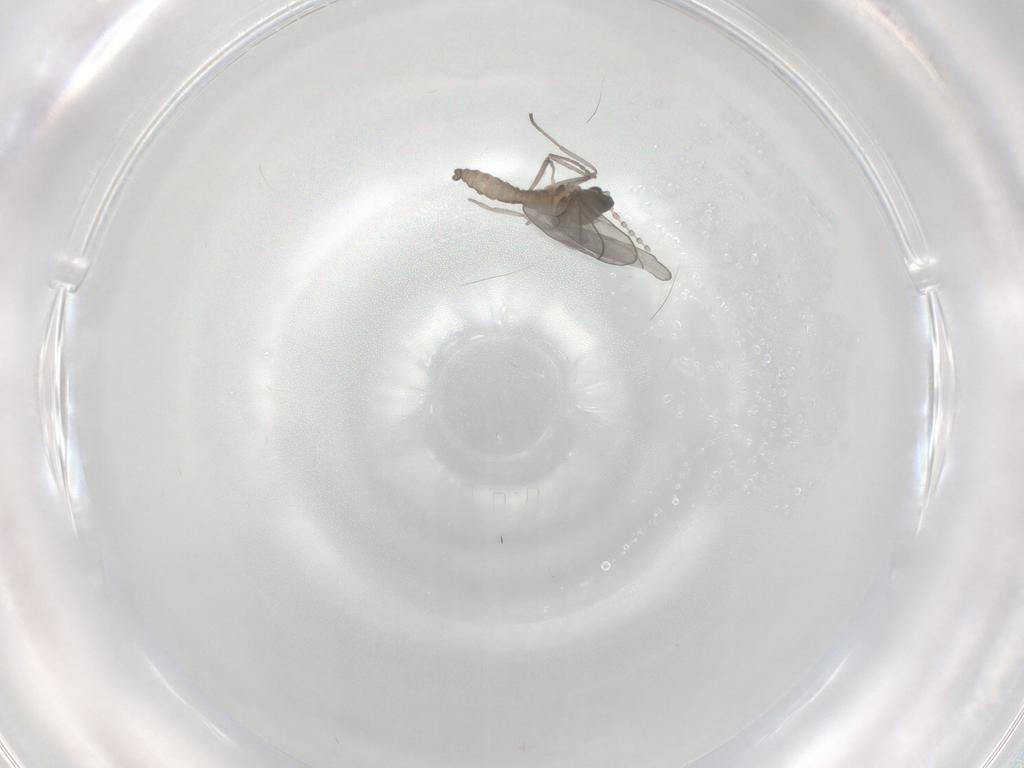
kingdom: Animalia
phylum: Arthropoda
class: Insecta
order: Diptera
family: Cecidomyiidae
